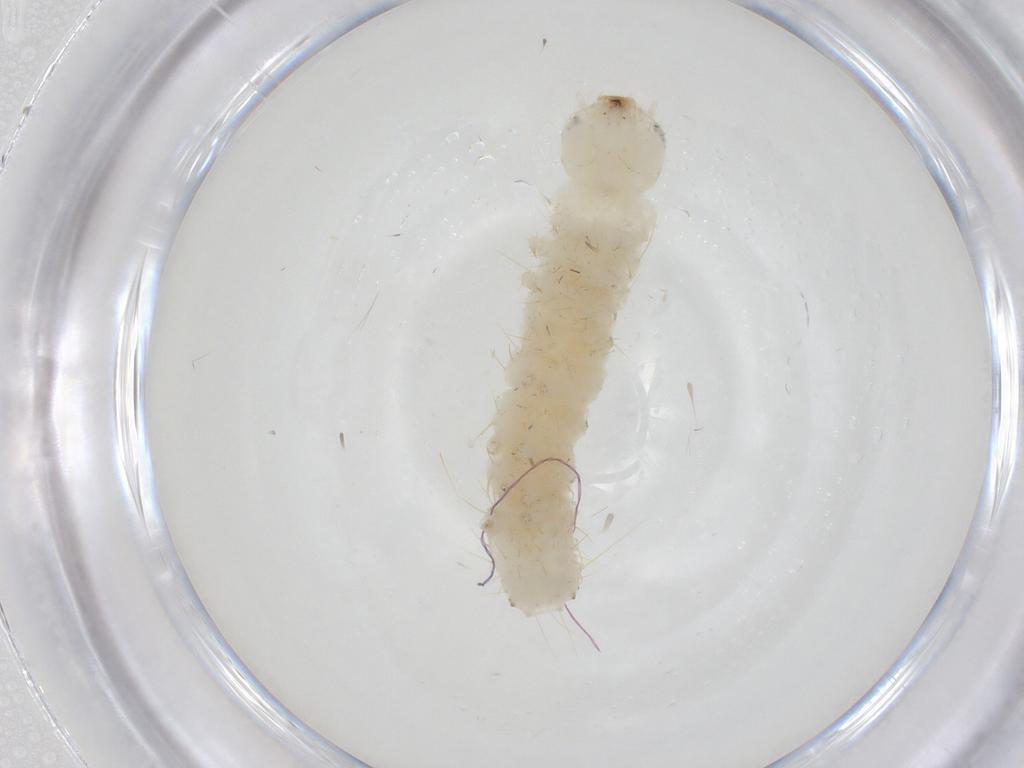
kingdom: Animalia
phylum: Arthropoda
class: Insecta
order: Lepidoptera
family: Crambidae
